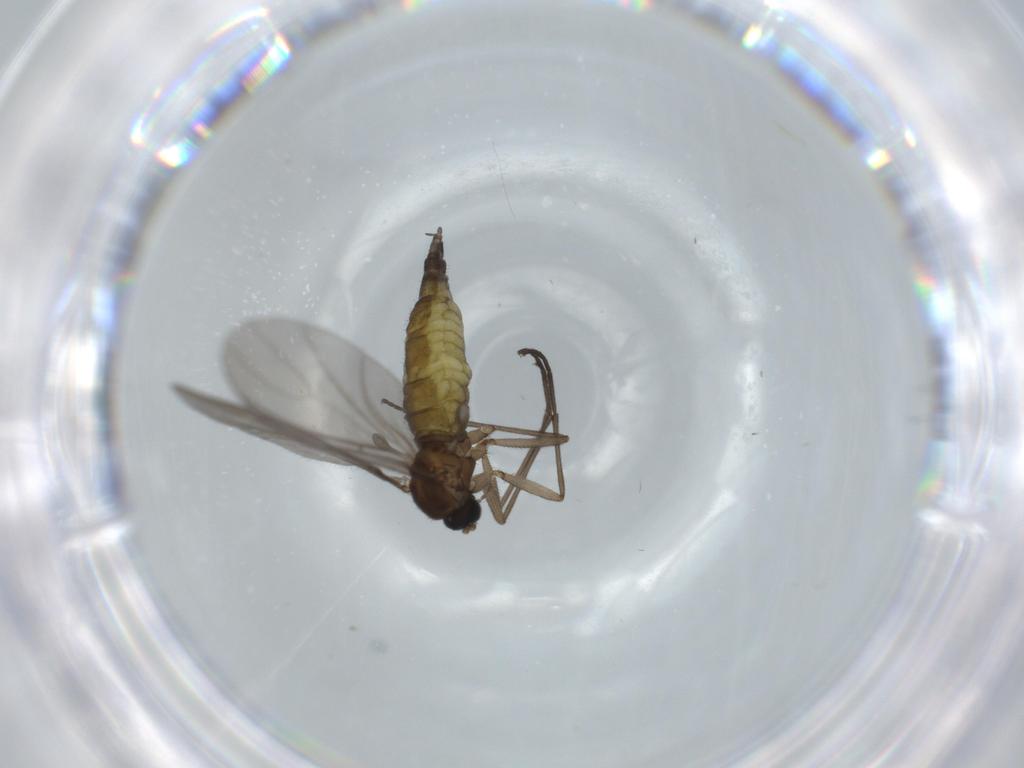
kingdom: Animalia
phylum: Arthropoda
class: Insecta
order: Diptera
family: Sciaridae
